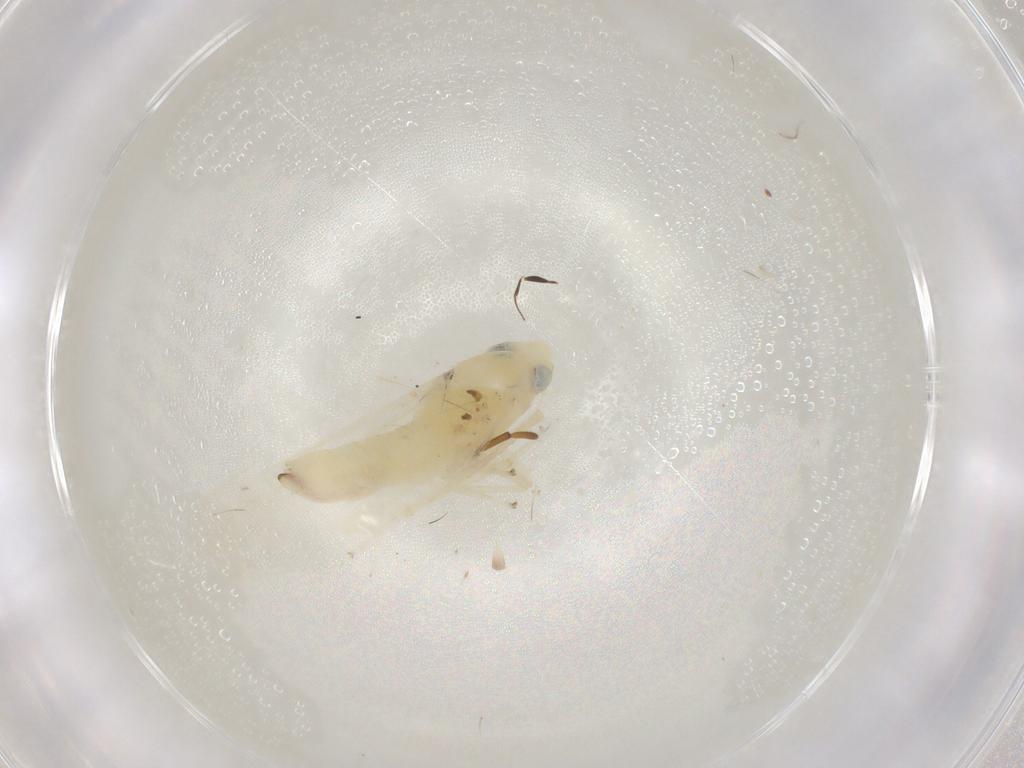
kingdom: Animalia
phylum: Arthropoda
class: Insecta
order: Hemiptera
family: Cicadellidae
